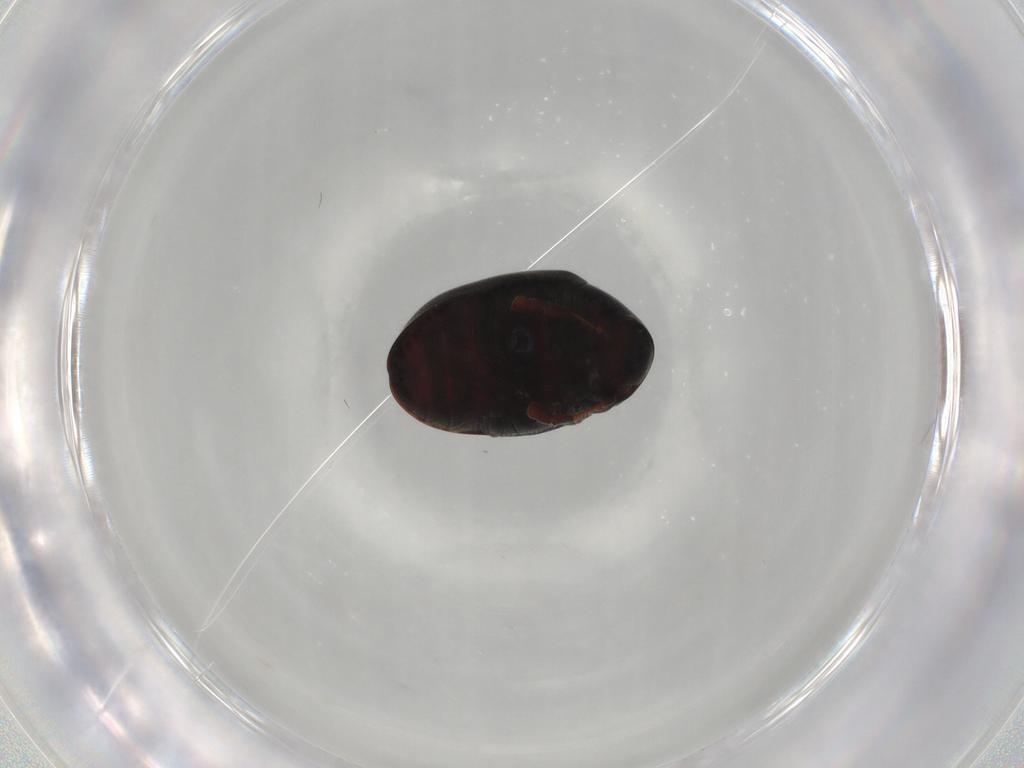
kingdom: Animalia
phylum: Arthropoda
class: Insecta
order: Coleoptera
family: Ptinidae
